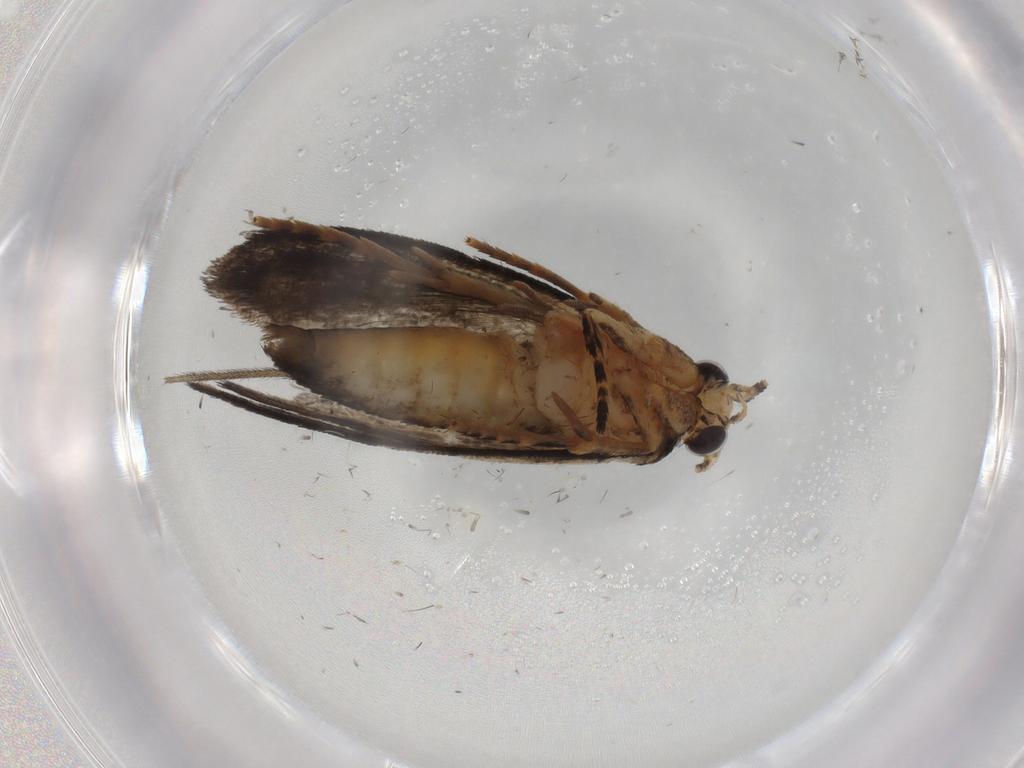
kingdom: Animalia
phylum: Arthropoda
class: Insecta
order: Lepidoptera
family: Tineidae
